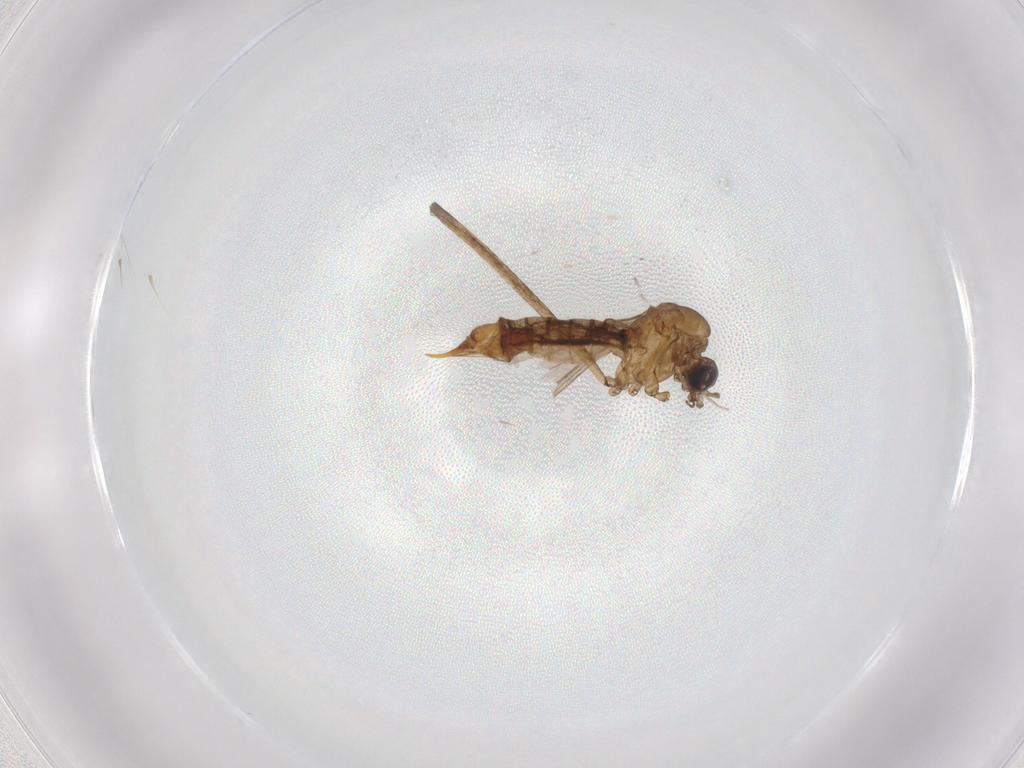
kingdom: Animalia
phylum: Arthropoda
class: Insecta
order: Diptera
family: Limoniidae
